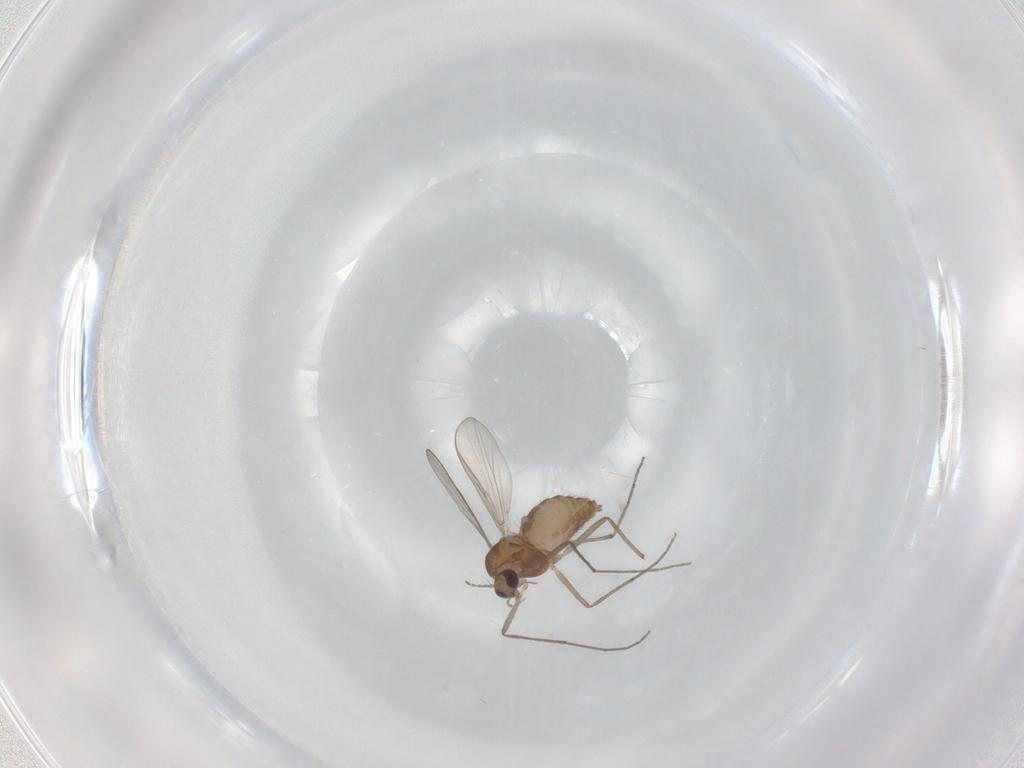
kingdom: Animalia
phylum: Arthropoda
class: Insecta
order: Diptera
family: Chironomidae
